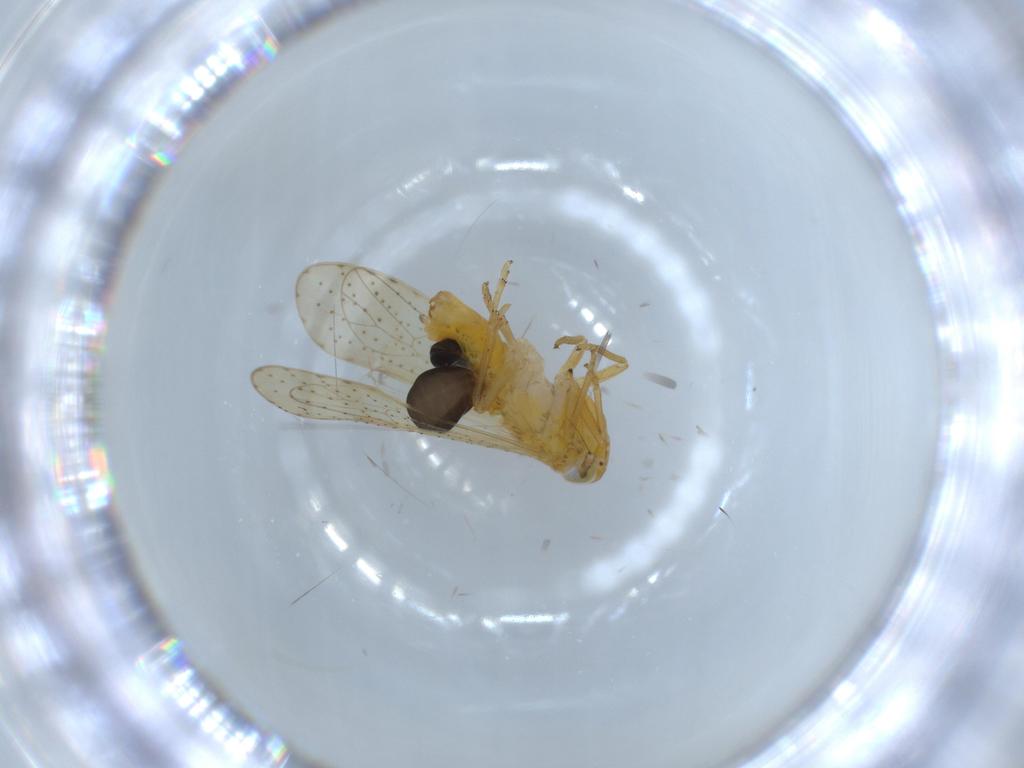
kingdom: Animalia
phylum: Arthropoda
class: Insecta
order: Hemiptera
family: Delphacidae
